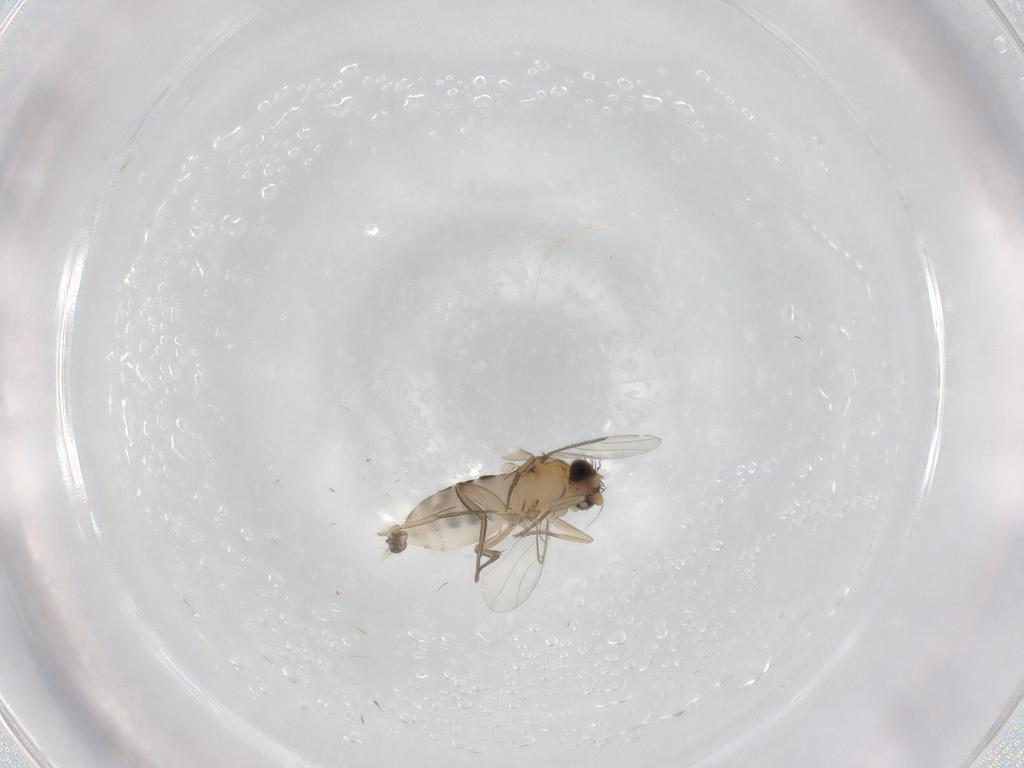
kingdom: Animalia
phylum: Arthropoda
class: Insecta
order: Diptera
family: Phoridae
